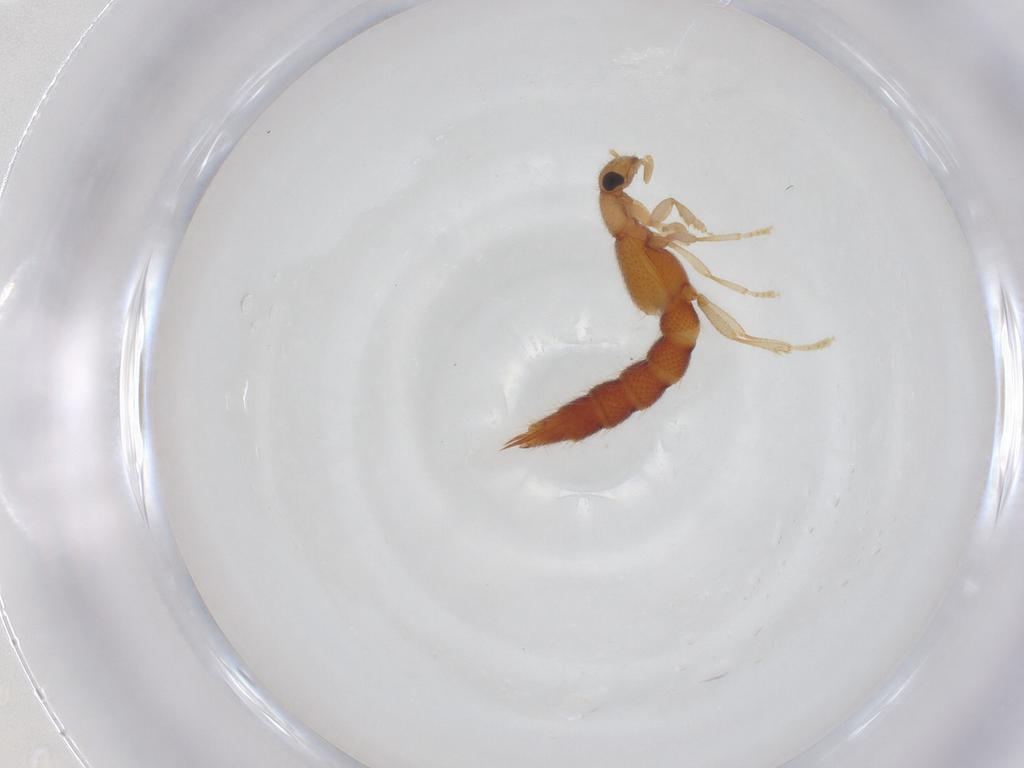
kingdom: Animalia
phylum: Arthropoda
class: Insecta
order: Coleoptera
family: Staphylinidae
